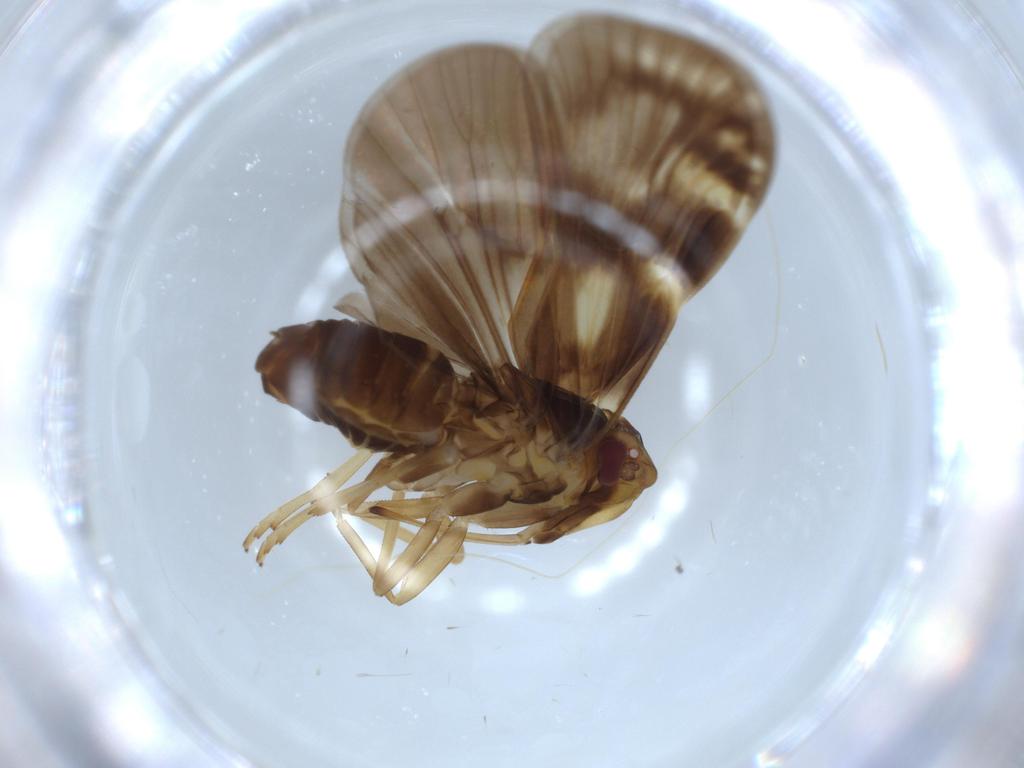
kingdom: Animalia
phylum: Arthropoda
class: Insecta
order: Hemiptera
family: Cixiidae
